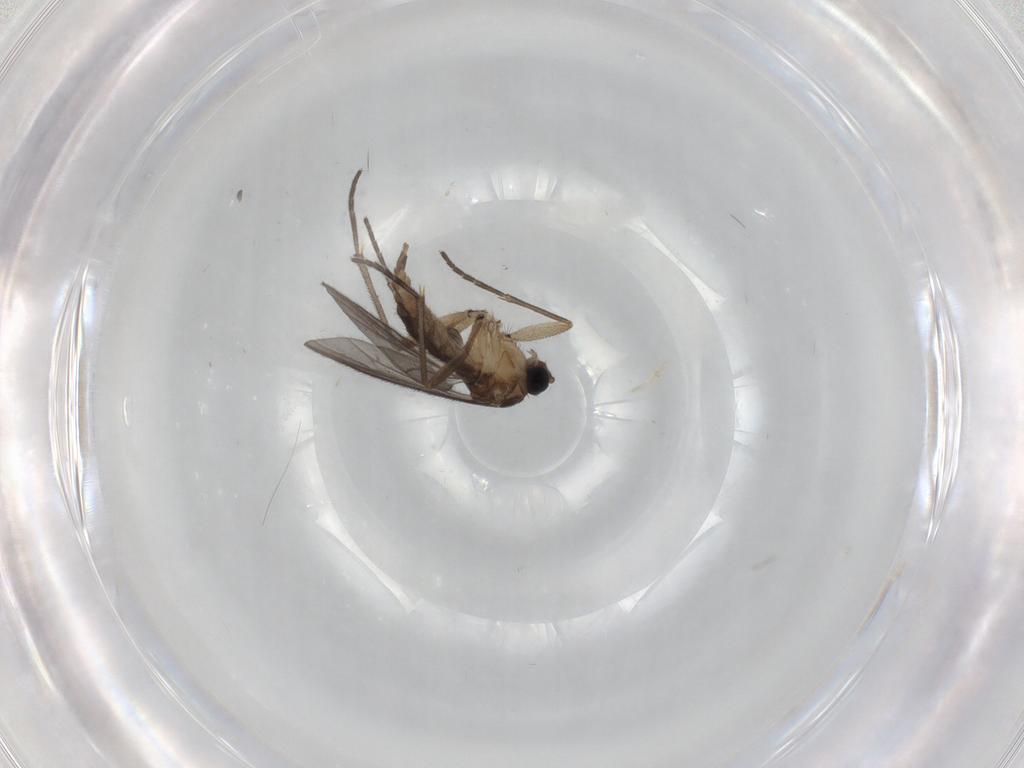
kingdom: Animalia
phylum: Arthropoda
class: Insecta
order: Diptera
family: Sciaridae
